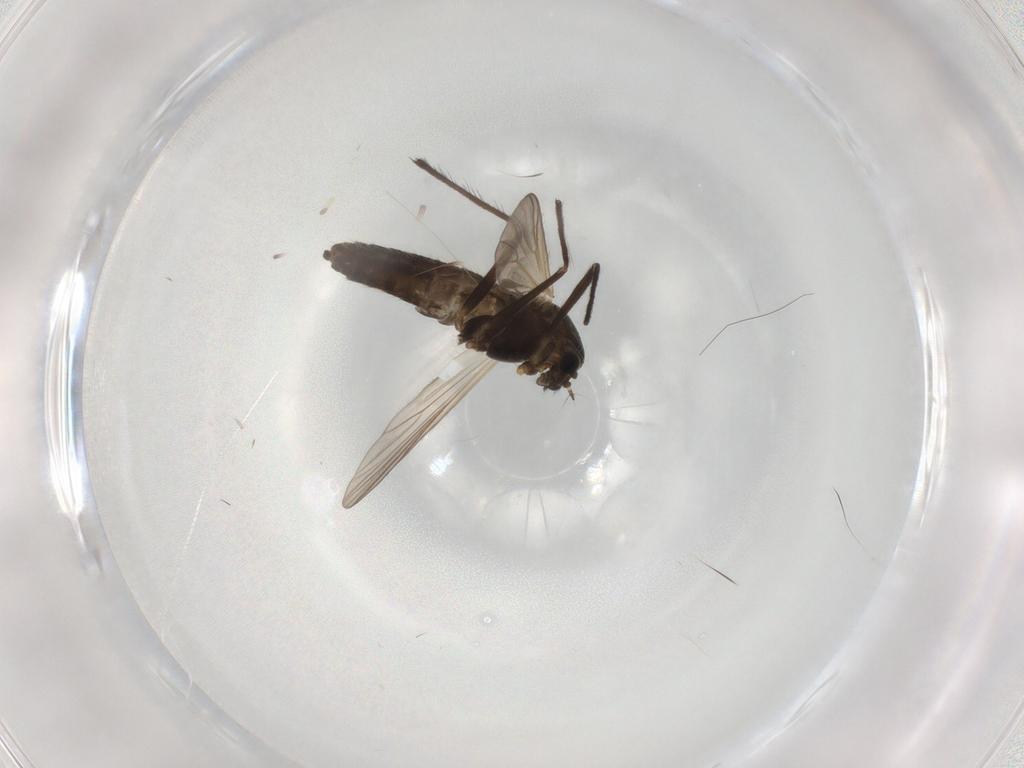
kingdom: Animalia
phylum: Arthropoda
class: Insecta
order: Diptera
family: Chironomidae
